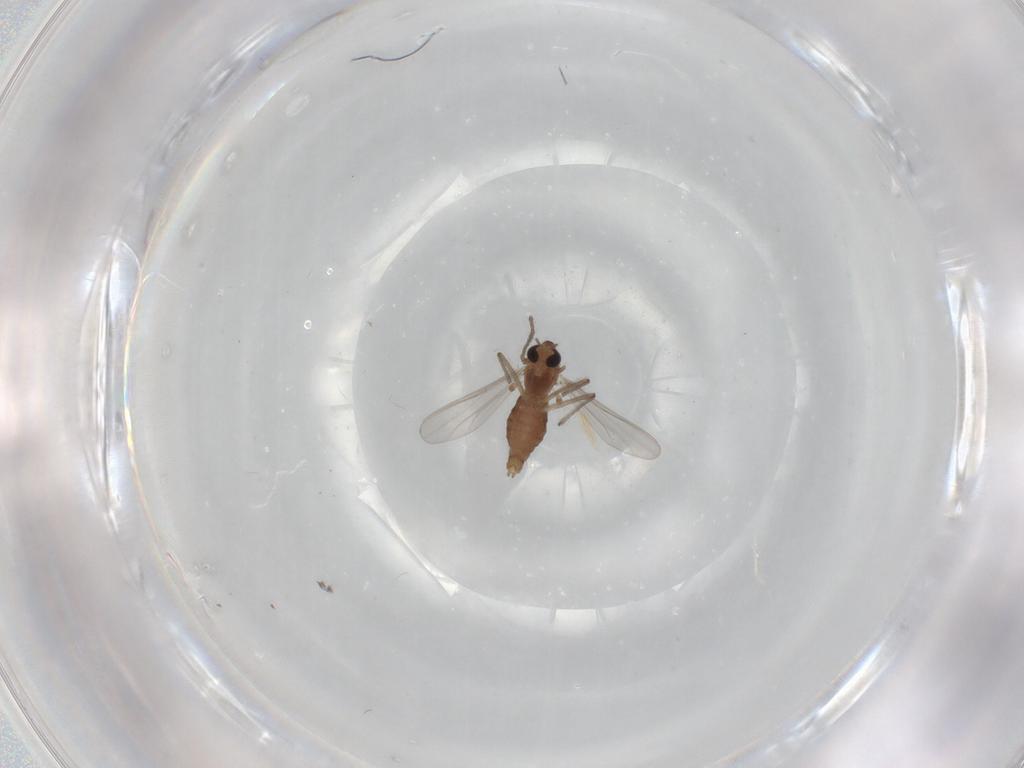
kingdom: Animalia
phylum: Arthropoda
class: Insecta
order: Diptera
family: Chironomidae
